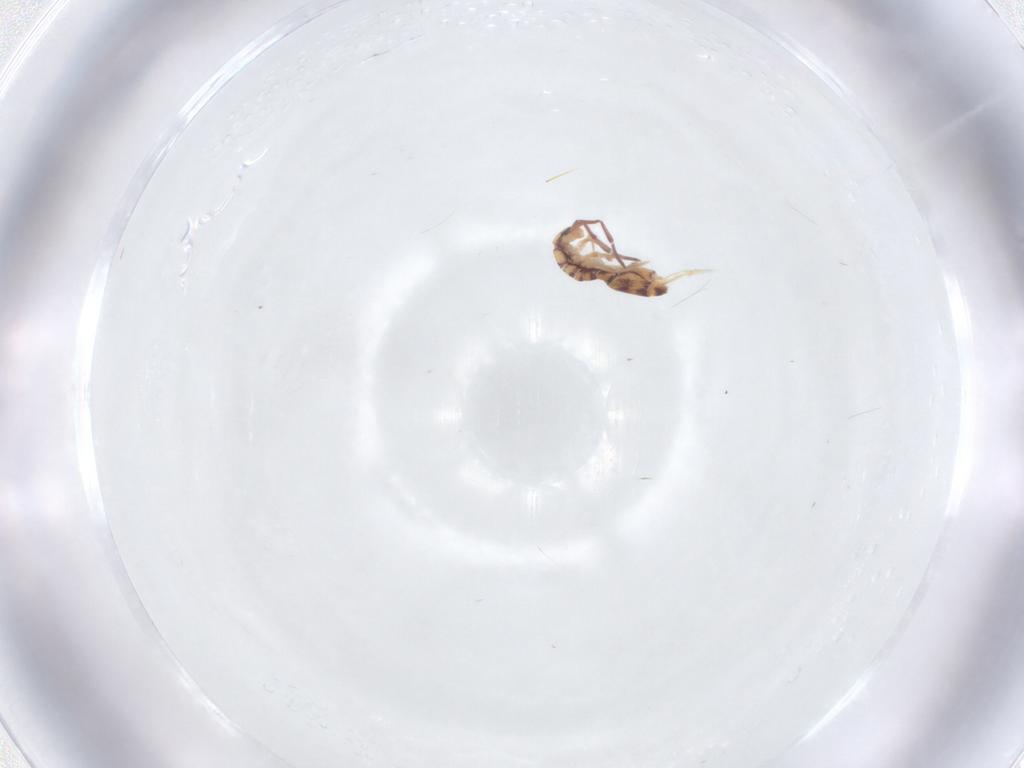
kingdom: Animalia
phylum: Arthropoda
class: Collembola
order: Entomobryomorpha
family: Entomobryidae
